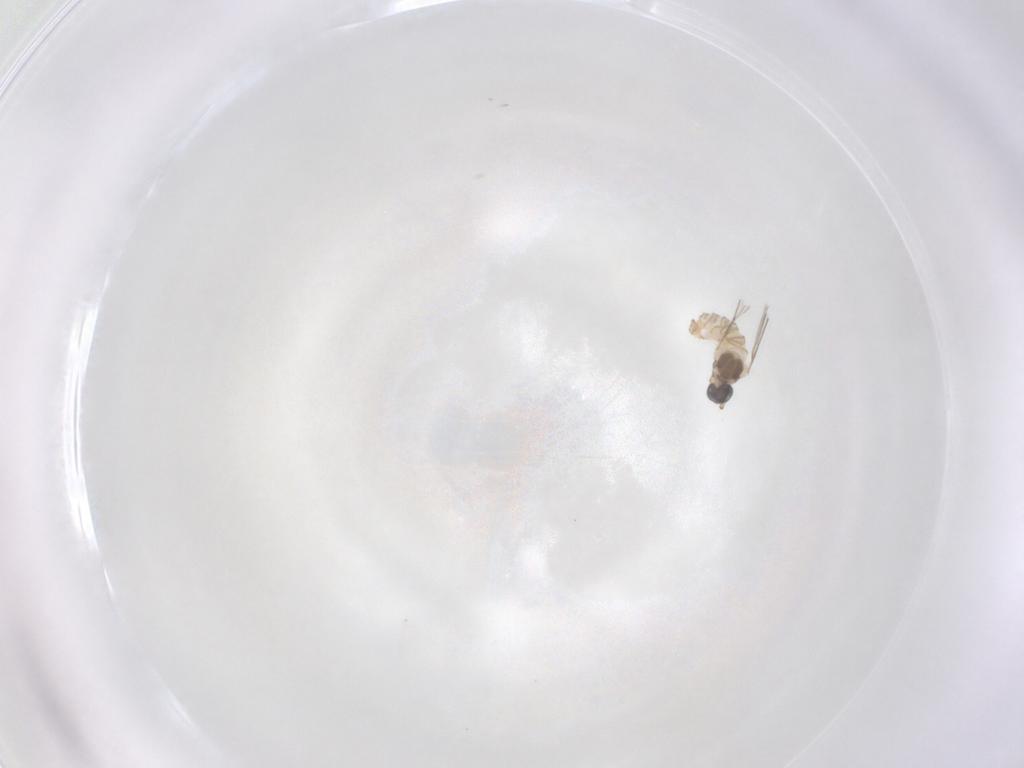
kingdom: Animalia
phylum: Arthropoda
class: Insecta
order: Diptera
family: Cecidomyiidae
